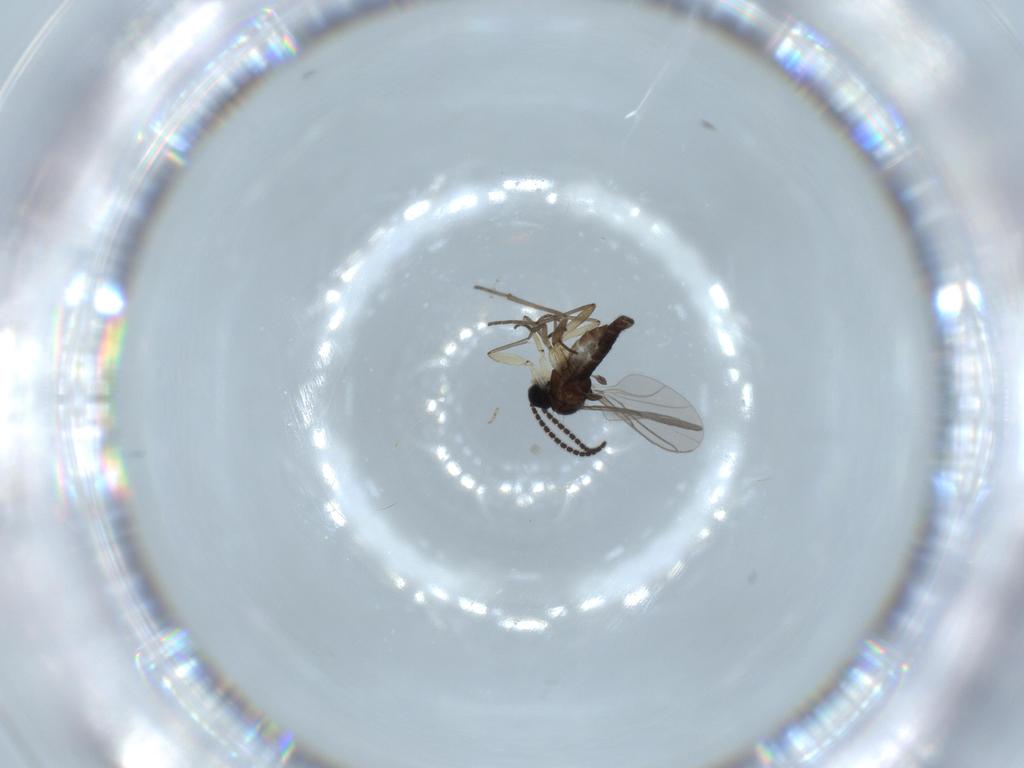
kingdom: Animalia
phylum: Arthropoda
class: Insecta
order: Diptera
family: Sciaridae
